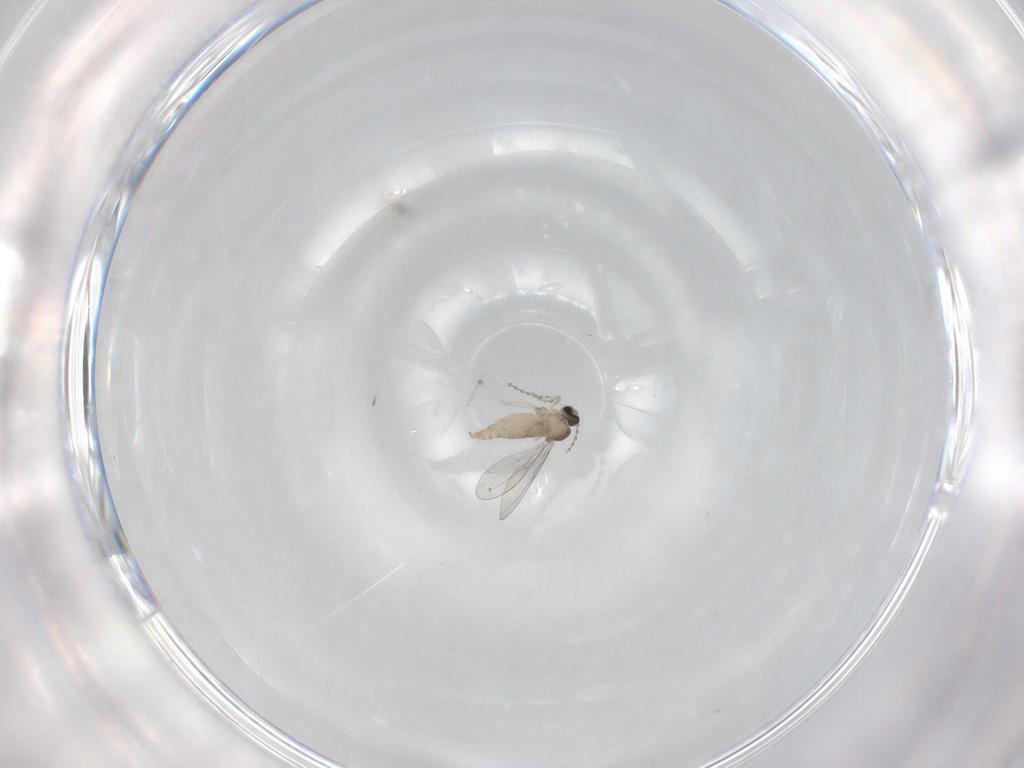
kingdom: Animalia
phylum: Arthropoda
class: Insecta
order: Diptera
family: Cecidomyiidae
